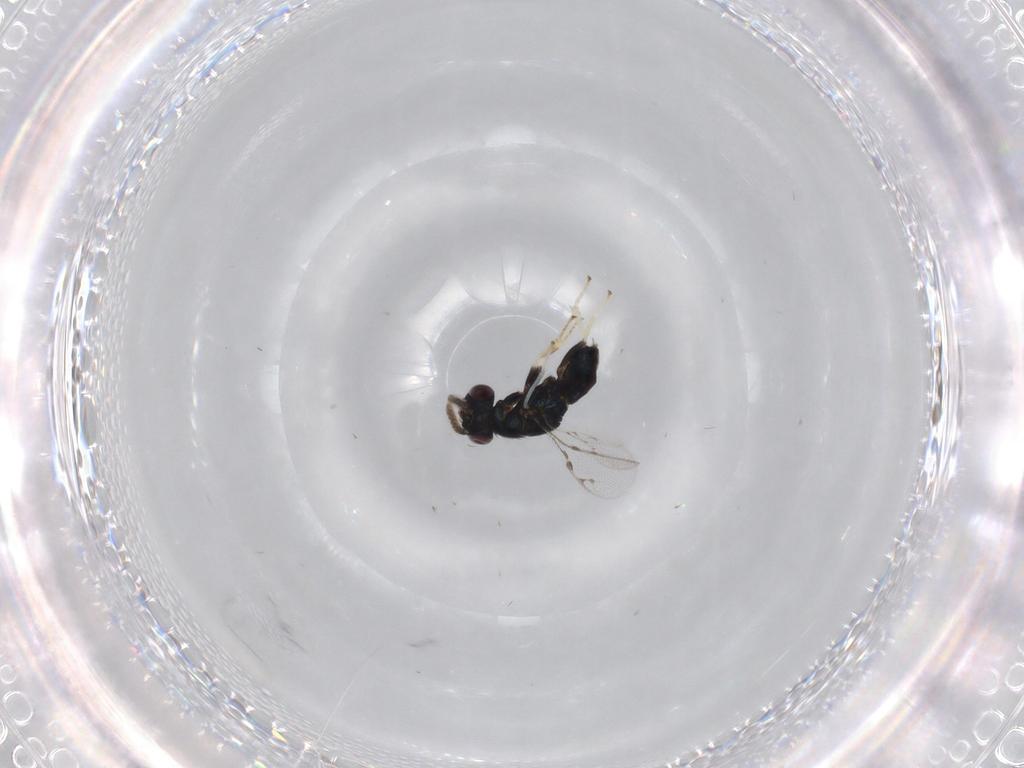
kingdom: Animalia
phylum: Arthropoda
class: Insecta
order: Hymenoptera
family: Pirenidae
